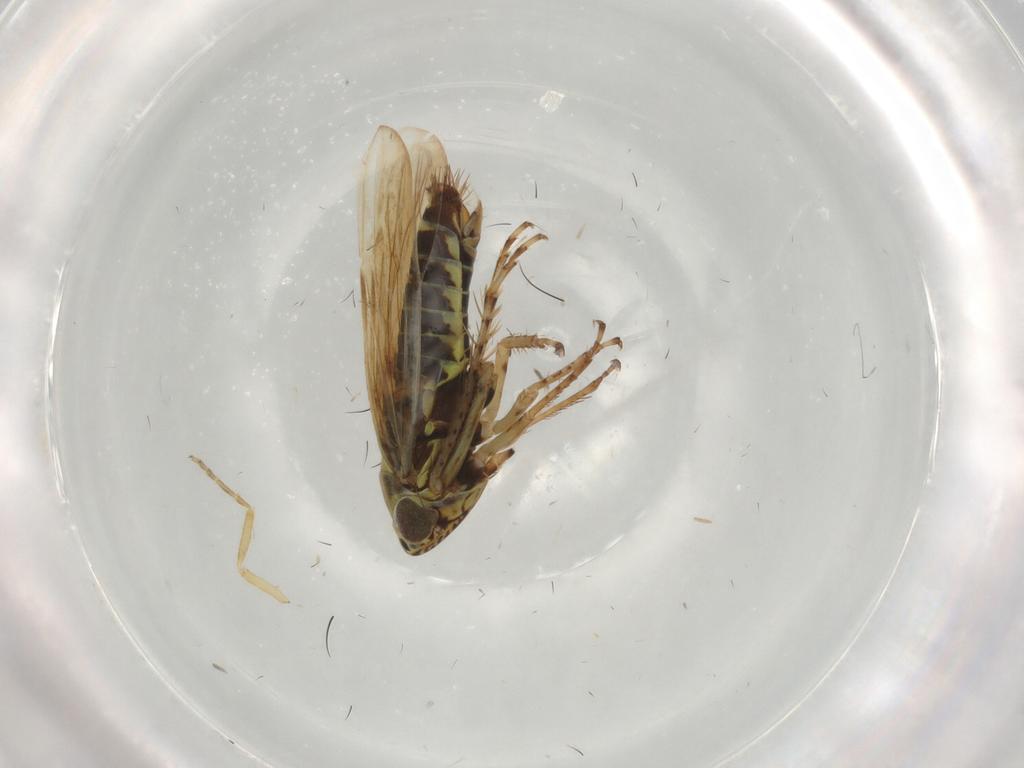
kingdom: Animalia
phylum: Arthropoda
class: Insecta
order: Hemiptera
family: Cicadellidae
